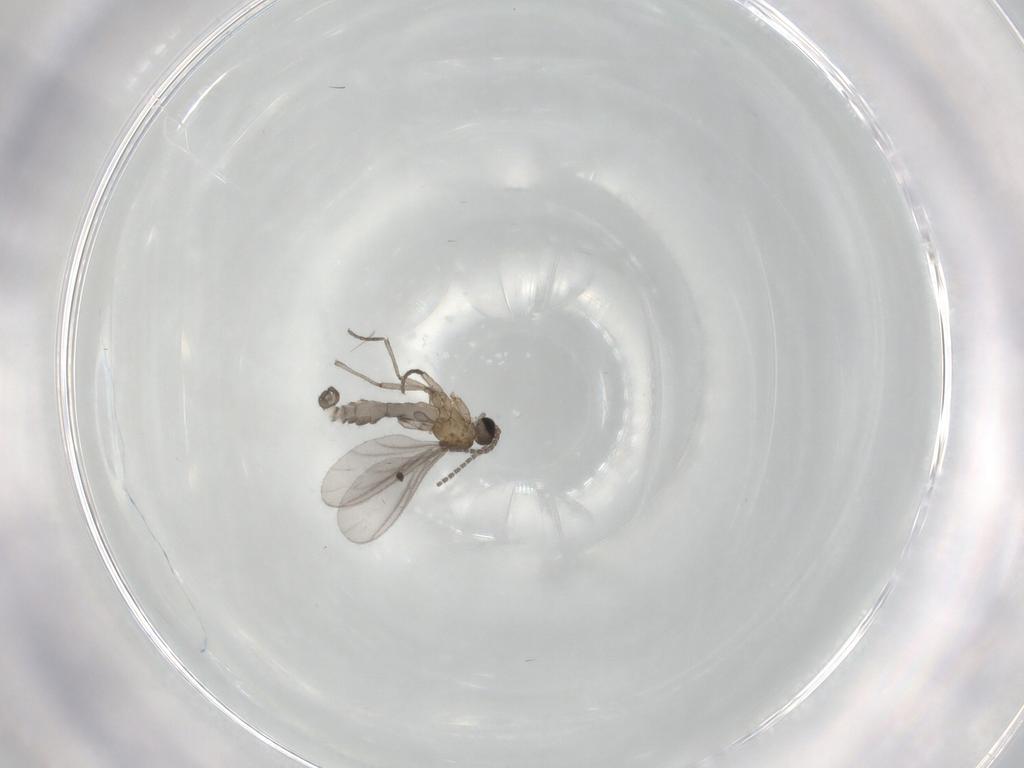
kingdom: Animalia
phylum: Arthropoda
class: Insecta
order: Diptera
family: Sciaridae
